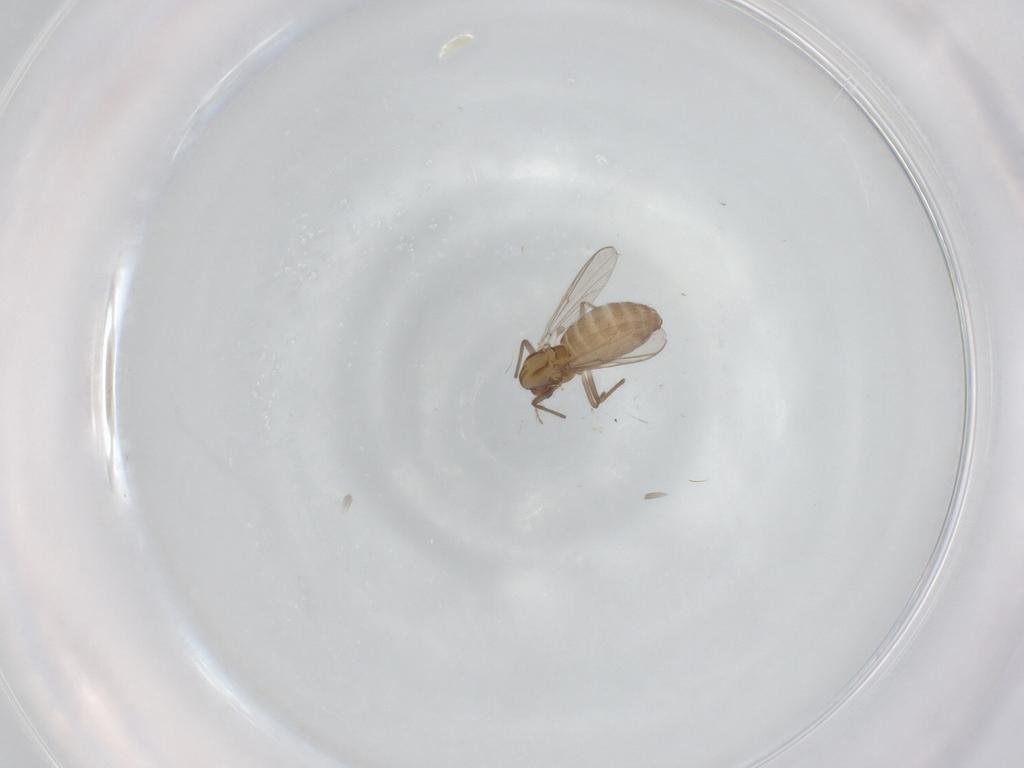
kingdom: Animalia
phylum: Arthropoda
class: Insecta
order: Diptera
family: Chironomidae
